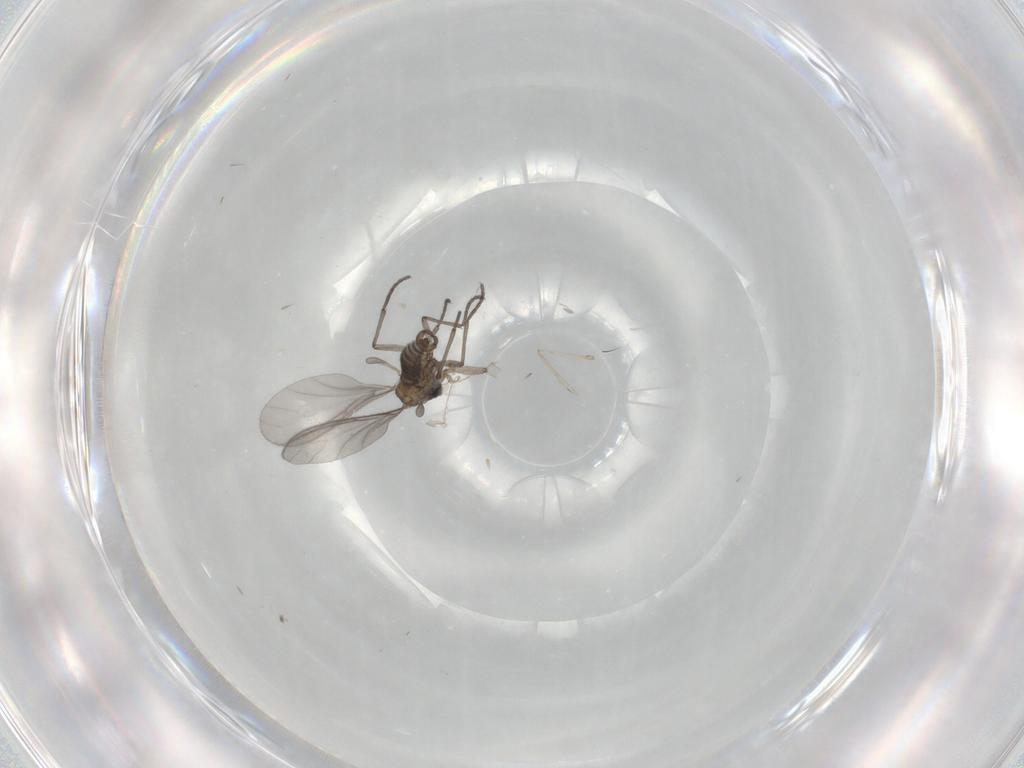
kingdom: Animalia
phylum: Arthropoda
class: Insecta
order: Diptera
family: Sciaridae
